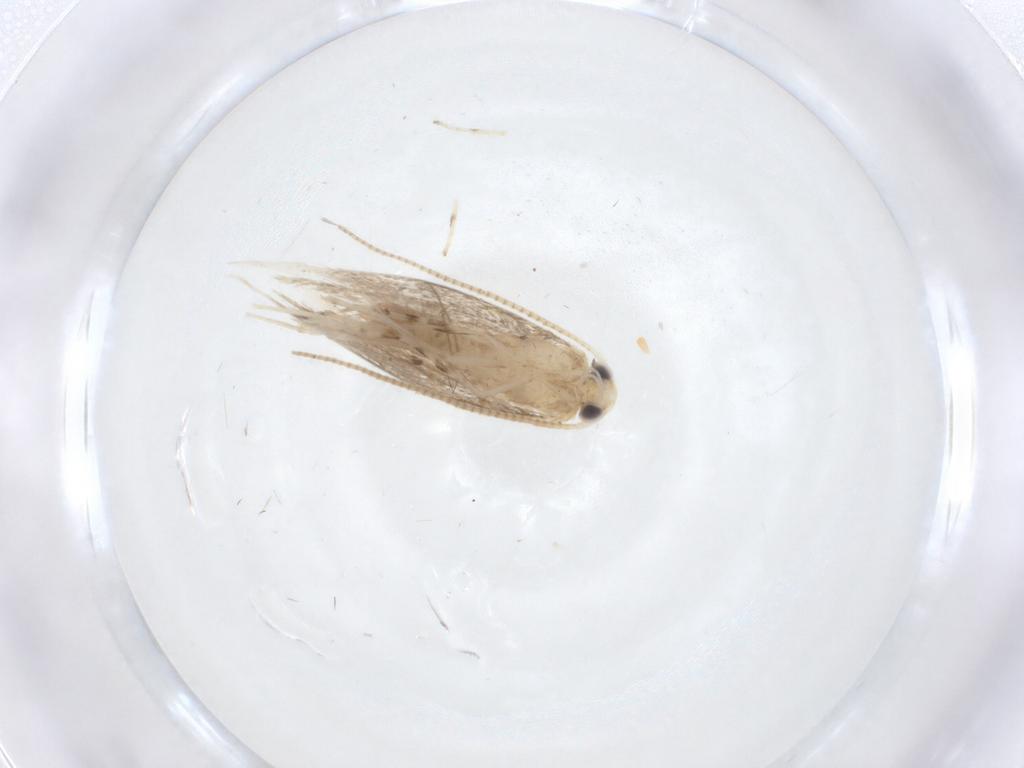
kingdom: Animalia
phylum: Arthropoda
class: Insecta
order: Lepidoptera
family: Gracillariidae
